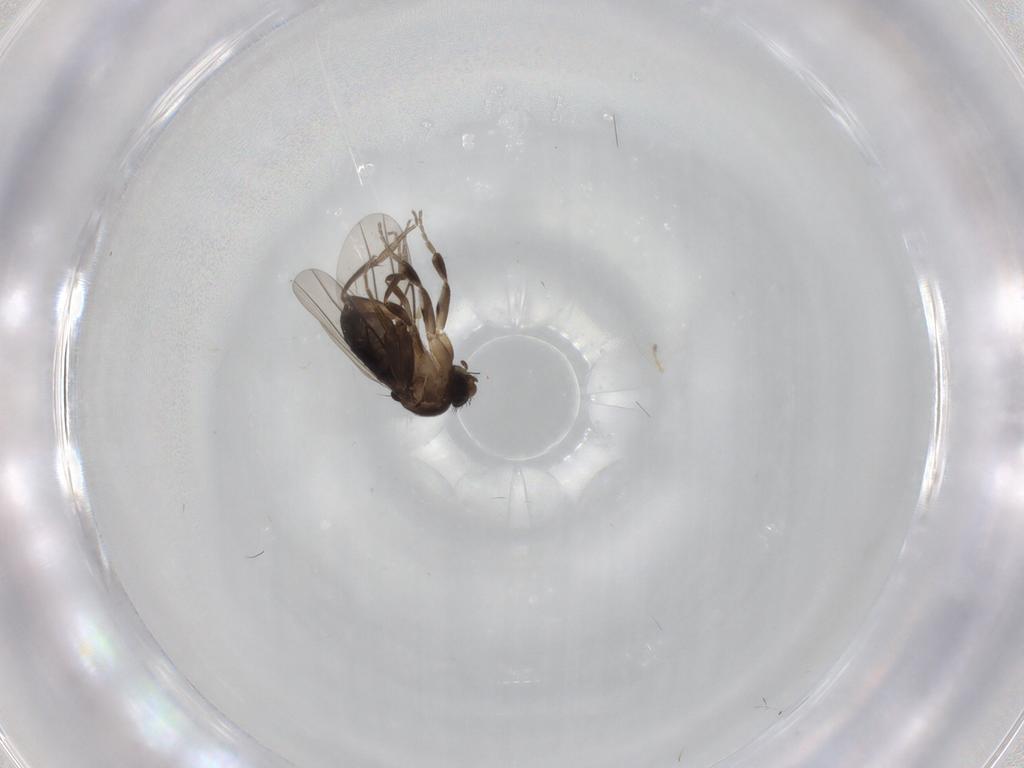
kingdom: Animalia
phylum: Arthropoda
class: Insecta
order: Diptera
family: Phoridae
